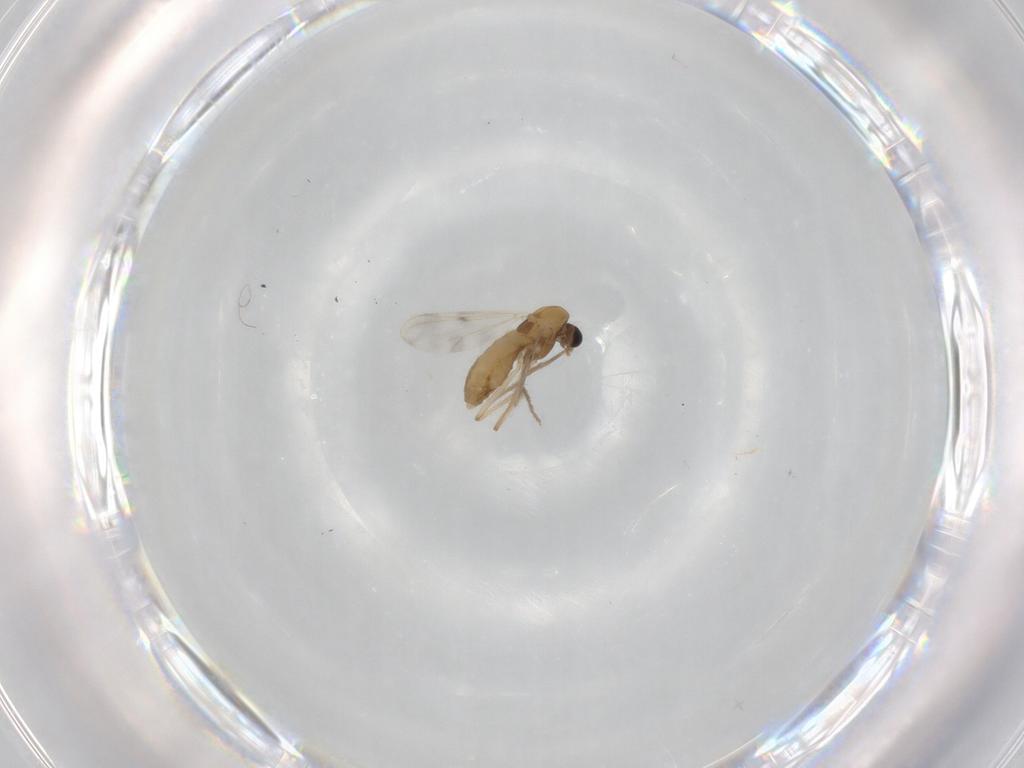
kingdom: Animalia
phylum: Arthropoda
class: Insecta
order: Diptera
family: Chironomidae
